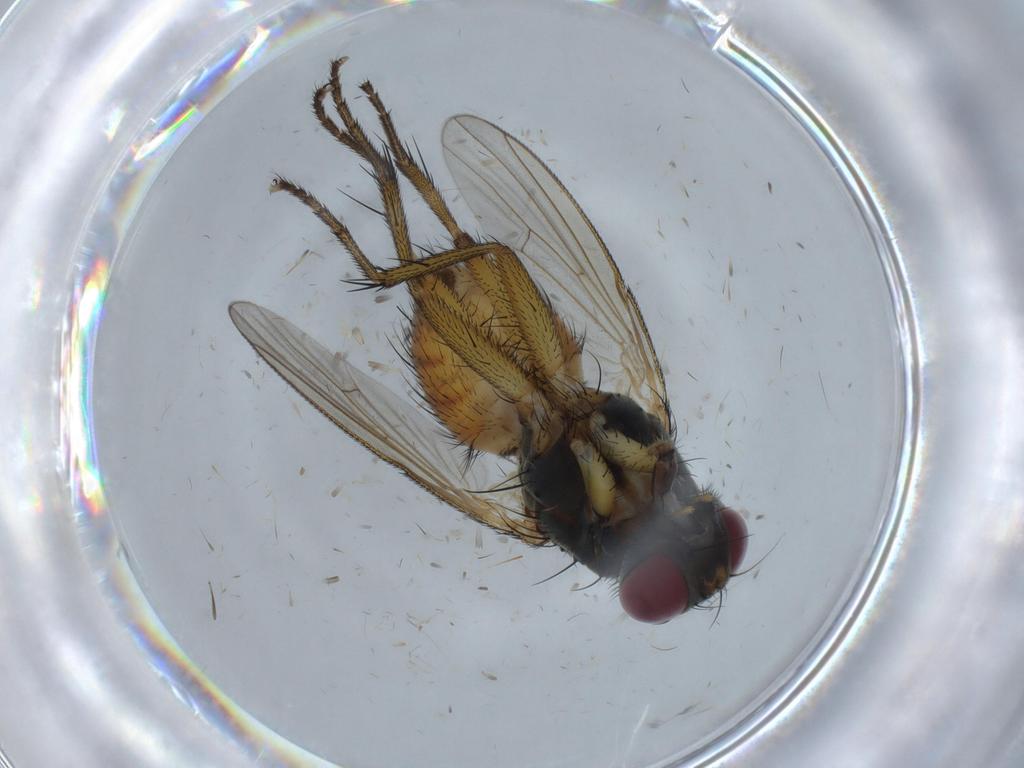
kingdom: Animalia
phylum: Arthropoda
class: Insecta
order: Diptera
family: Muscidae
